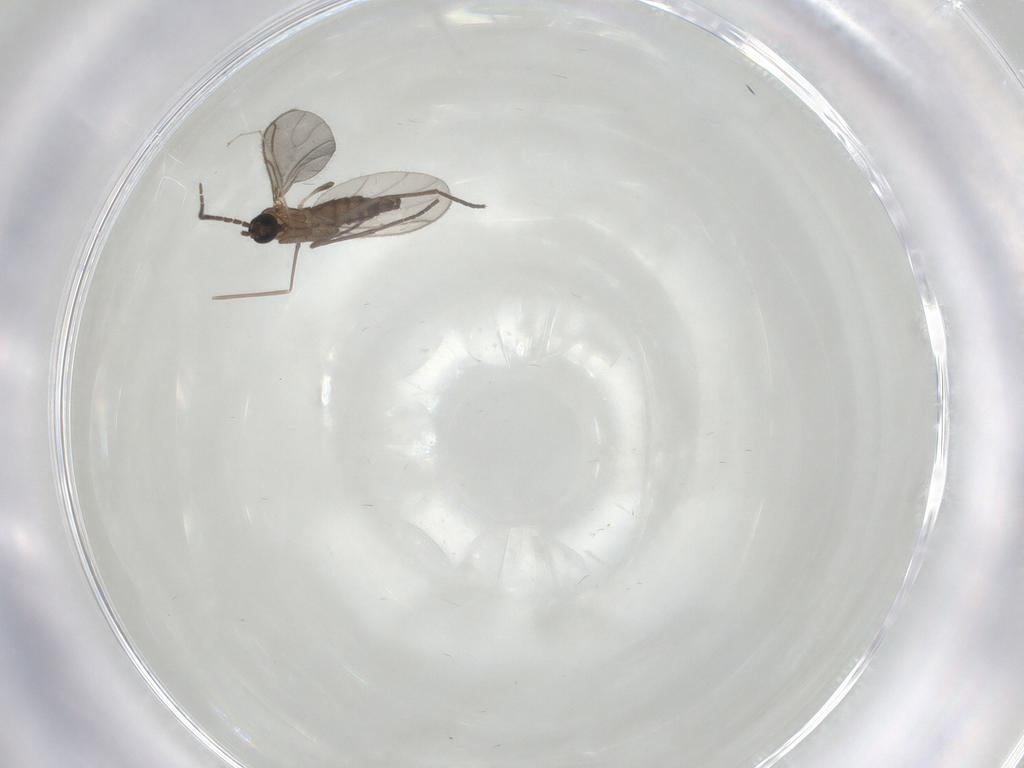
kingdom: Animalia
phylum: Arthropoda
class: Insecta
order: Diptera
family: Sciaridae
